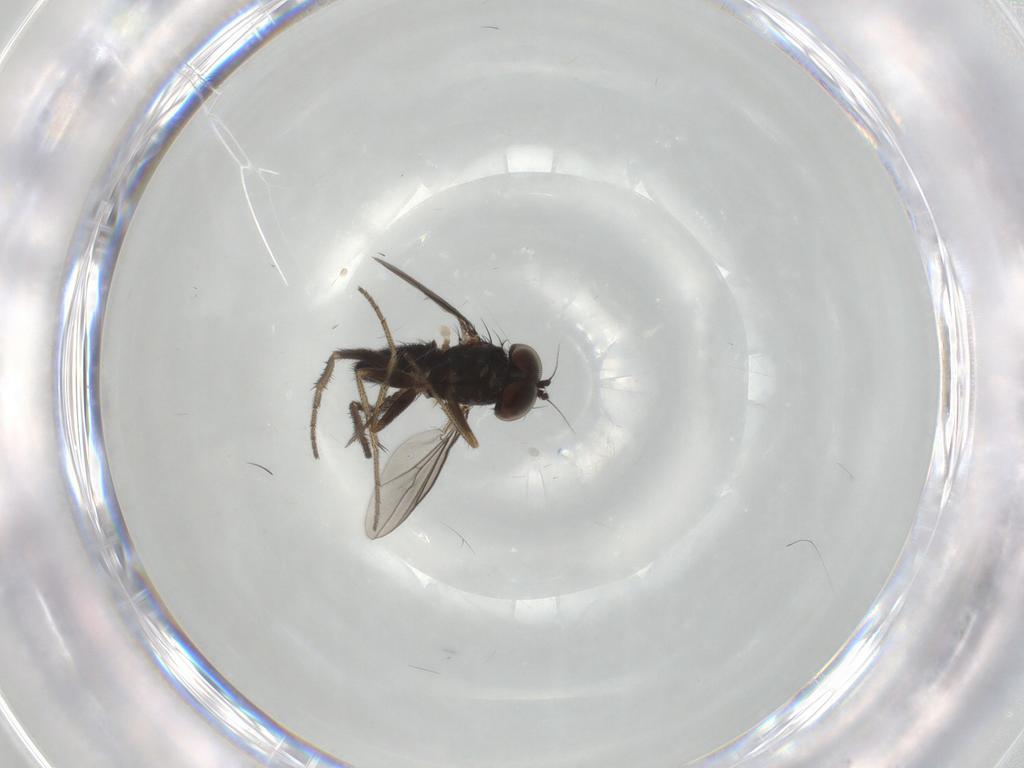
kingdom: Animalia
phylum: Arthropoda
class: Insecta
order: Diptera
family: Dolichopodidae
